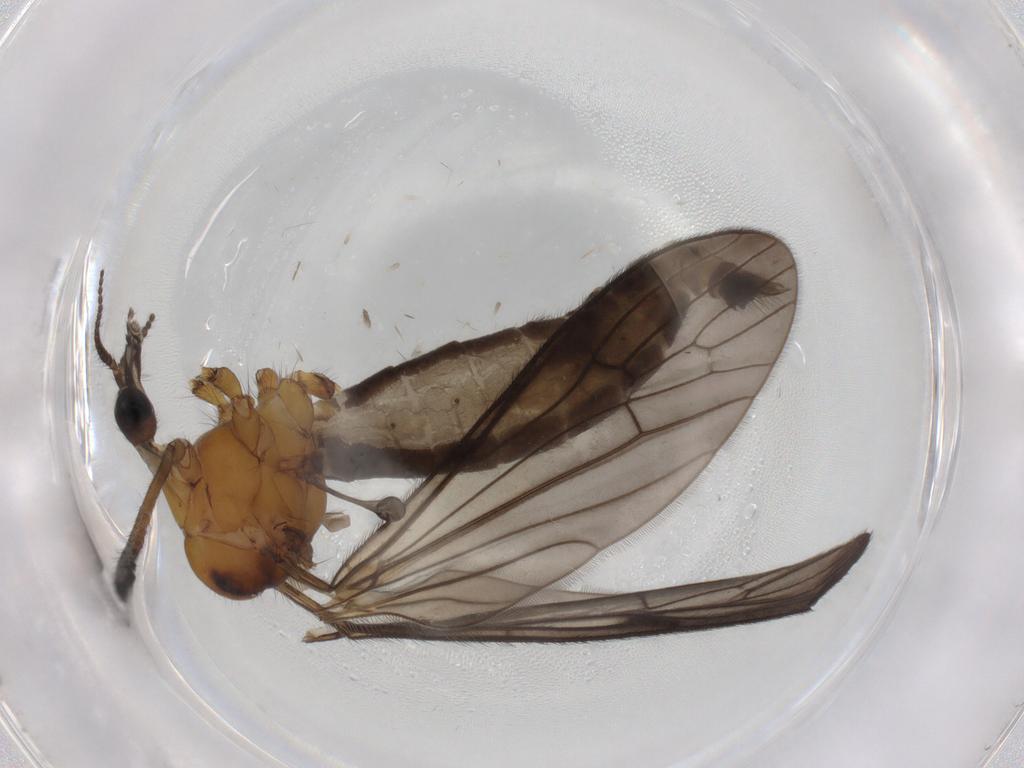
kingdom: Animalia
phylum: Arthropoda
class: Insecta
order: Diptera
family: Limoniidae
